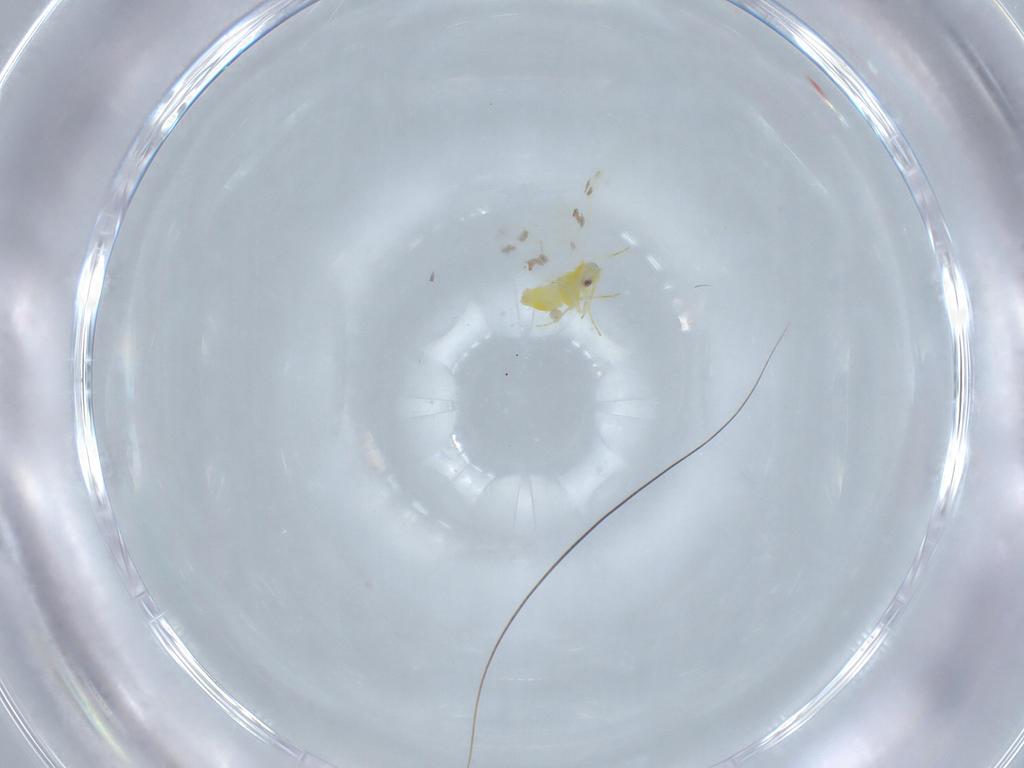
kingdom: Animalia
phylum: Arthropoda
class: Insecta
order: Hemiptera
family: Aleyrodidae
